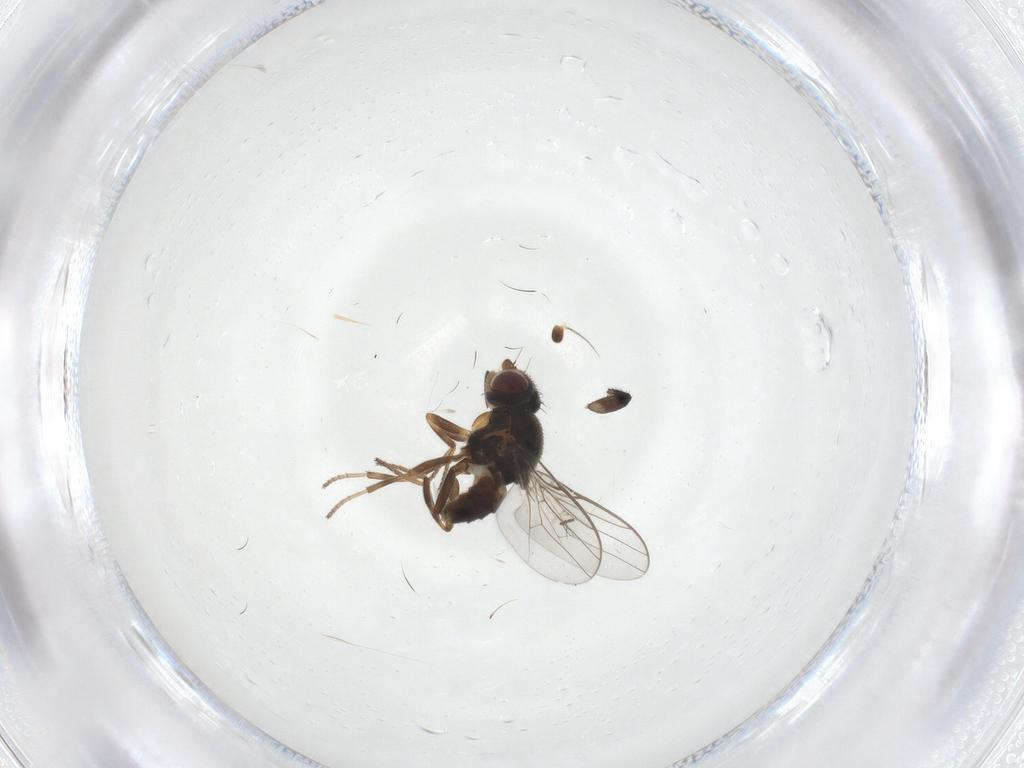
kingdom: Animalia
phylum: Arthropoda
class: Insecta
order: Diptera
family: Chloropidae
